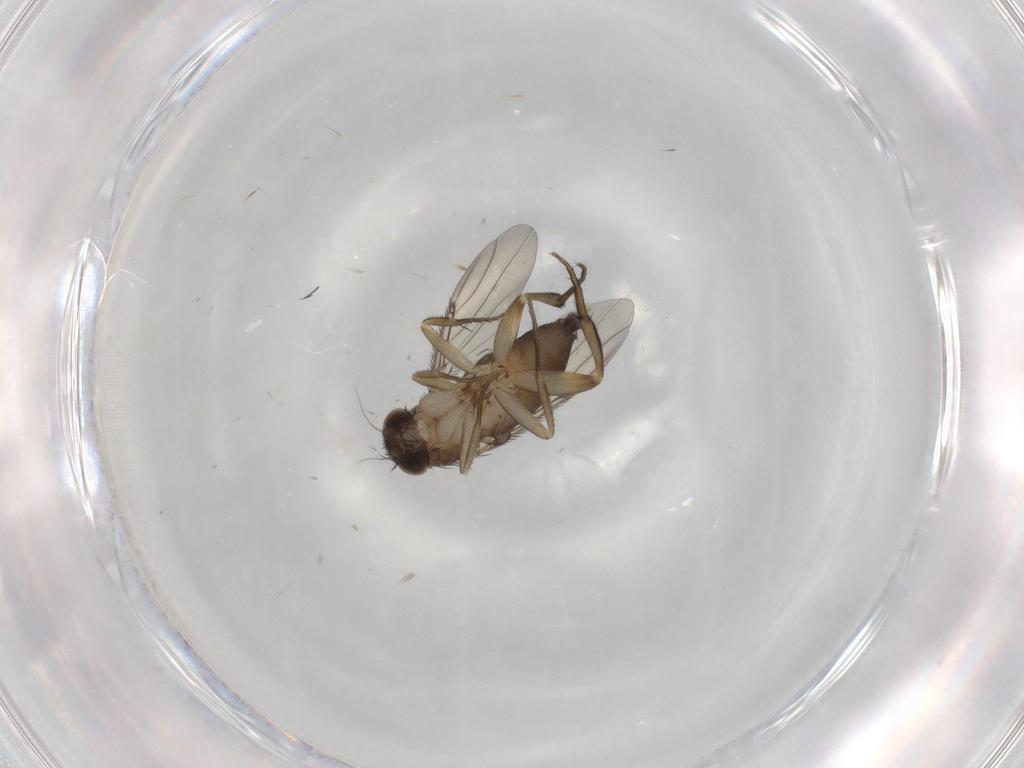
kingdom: Animalia
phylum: Arthropoda
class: Insecta
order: Diptera
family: Phoridae
